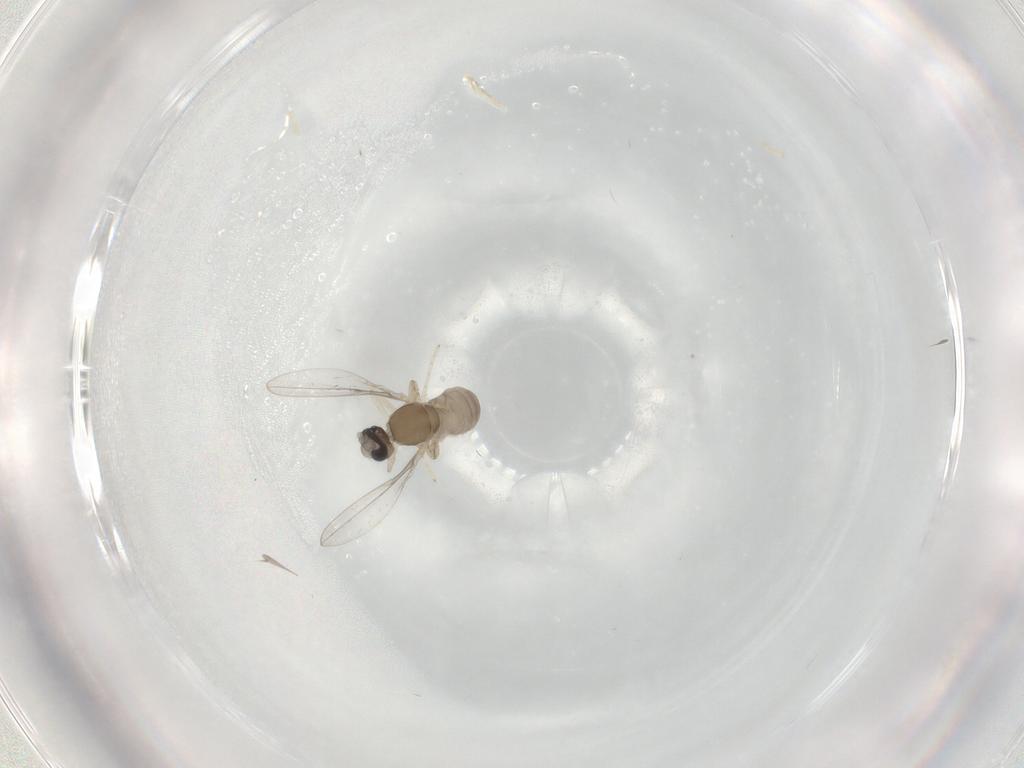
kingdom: Animalia
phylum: Arthropoda
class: Insecta
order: Diptera
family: Cecidomyiidae
